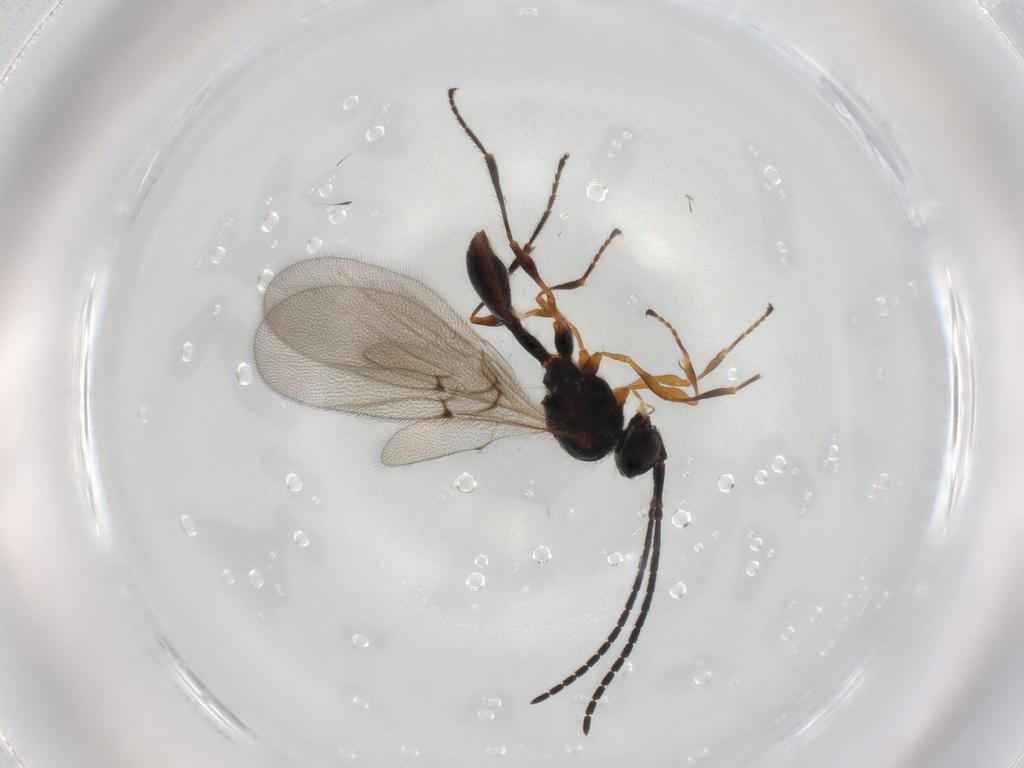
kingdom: Animalia
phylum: Arthropoda
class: Insecta
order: Hymenoptera
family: Diapriidae
